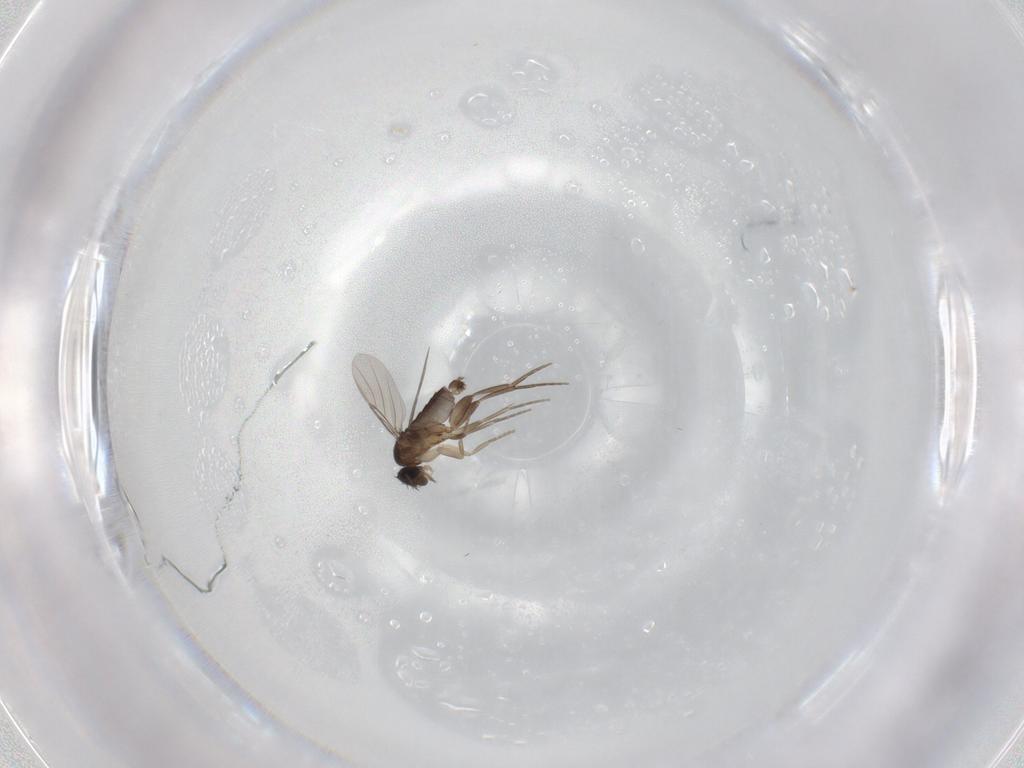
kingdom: Animalia
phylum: Arthropoda
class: Insecta
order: Diptera
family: Phoridae
